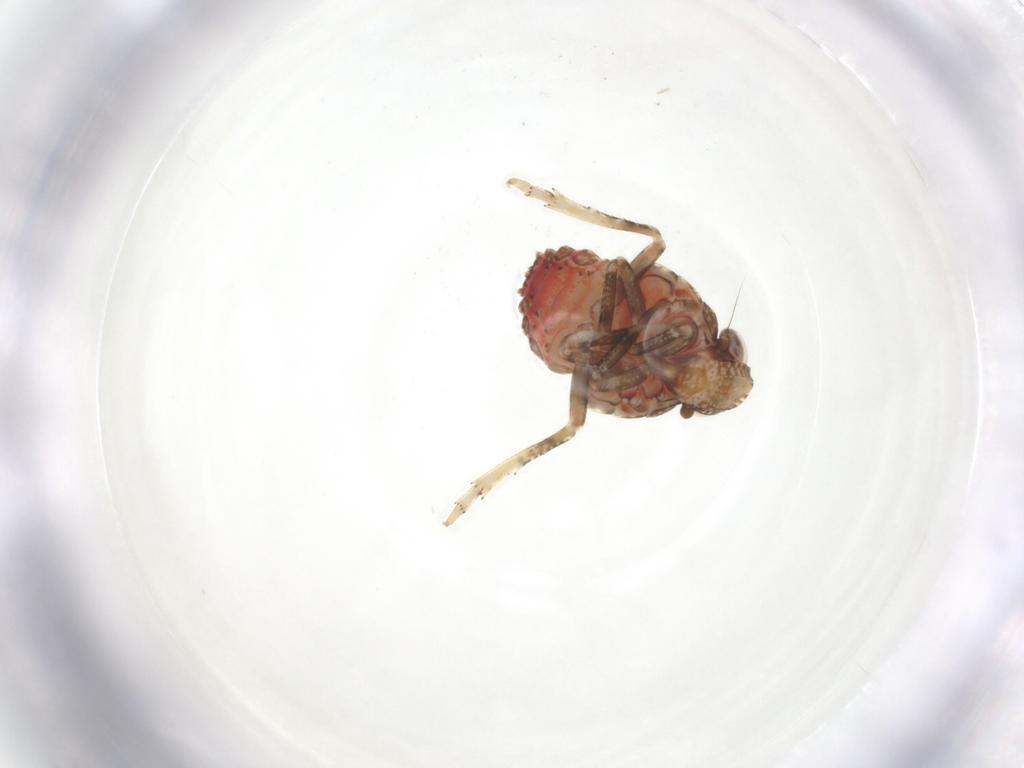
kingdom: Animalia
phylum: Arthropoda
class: Insecta
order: Hemiptera
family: Tropiduchidae
